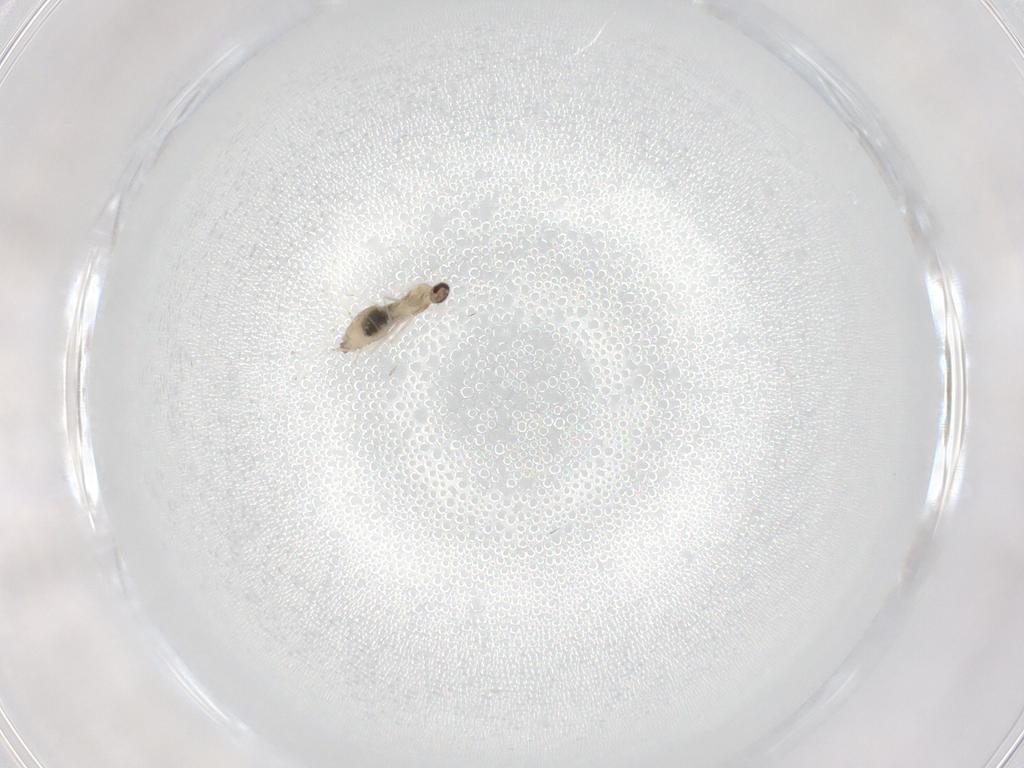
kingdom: Animalia
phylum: Arthropoda
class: Insecta
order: Diptera
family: Cecidomyiidae
